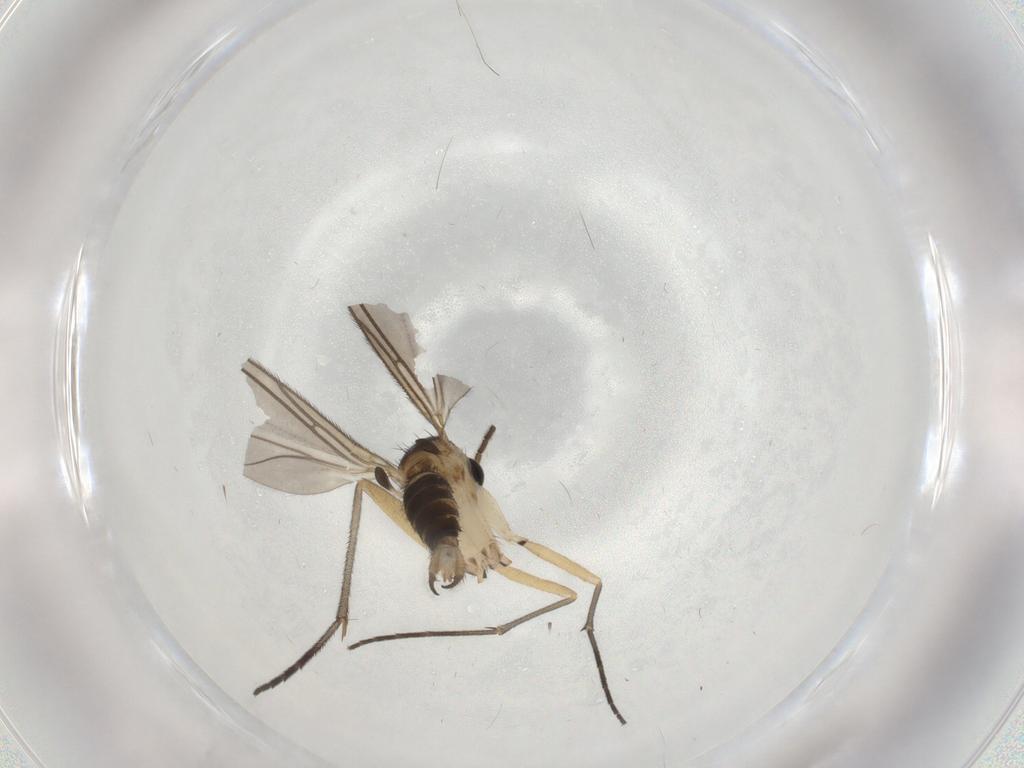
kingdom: Animalia
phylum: Arthropoda
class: Insecta
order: Diptera
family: Sciaridae
